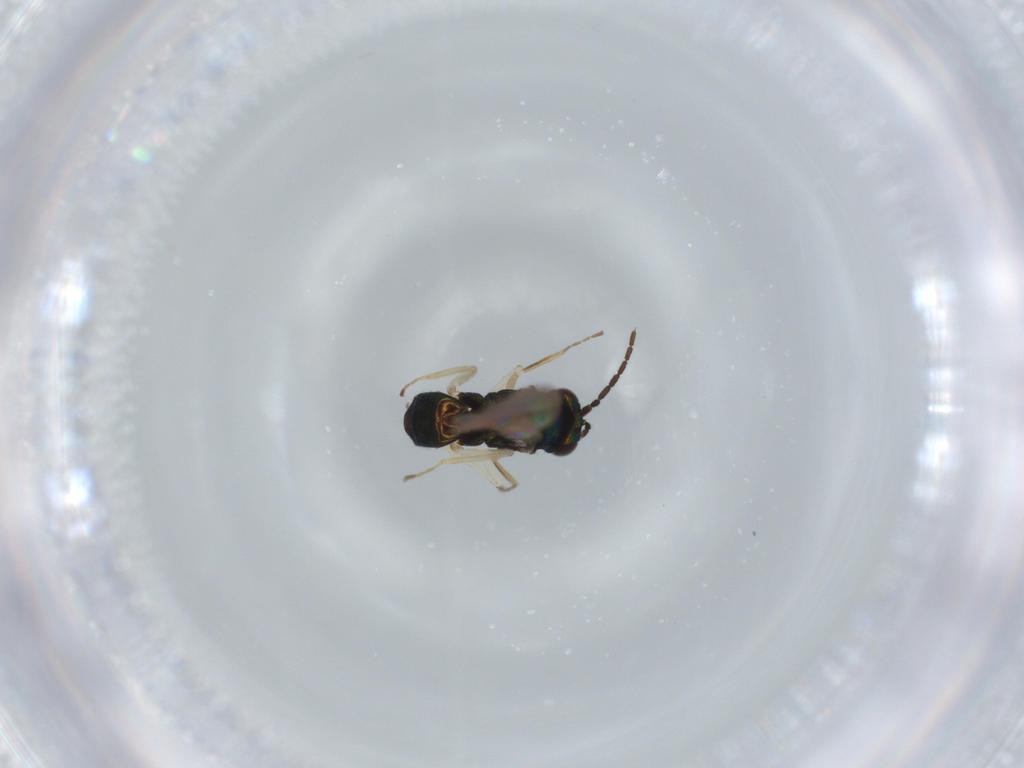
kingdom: Animalia
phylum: Arthropoda
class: Insecta
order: Hymenoptera
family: Eulophidae
